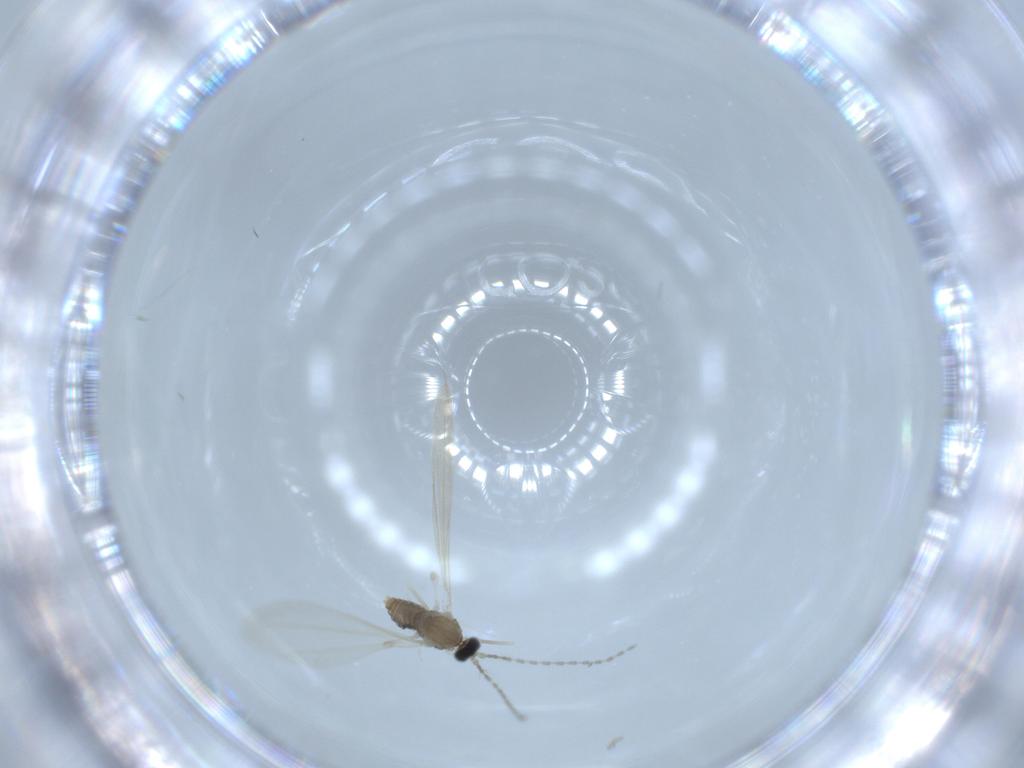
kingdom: Animalia
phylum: Arthropoda
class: Insecta
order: Diptera
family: Cecidomyiidae
